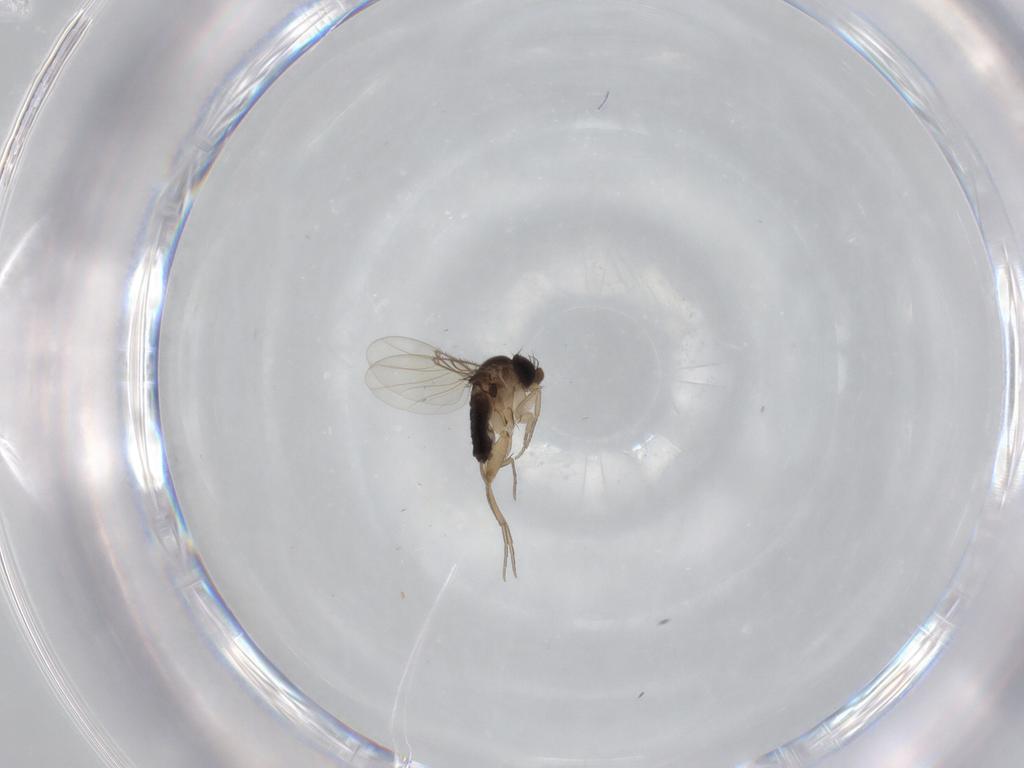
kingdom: Animalia
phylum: Arthropoda
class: Insecta
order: Diptera
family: Phoridae
